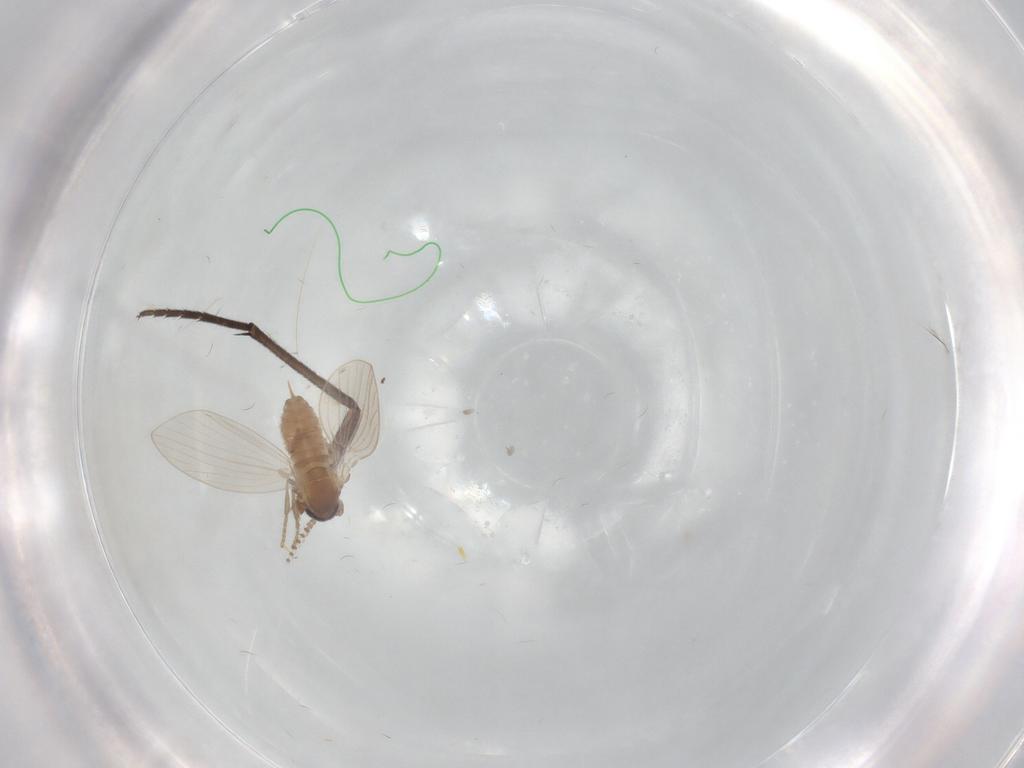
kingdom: Animalia
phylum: Arthropoda
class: Insecta
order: Diptera
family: Psychodidae
